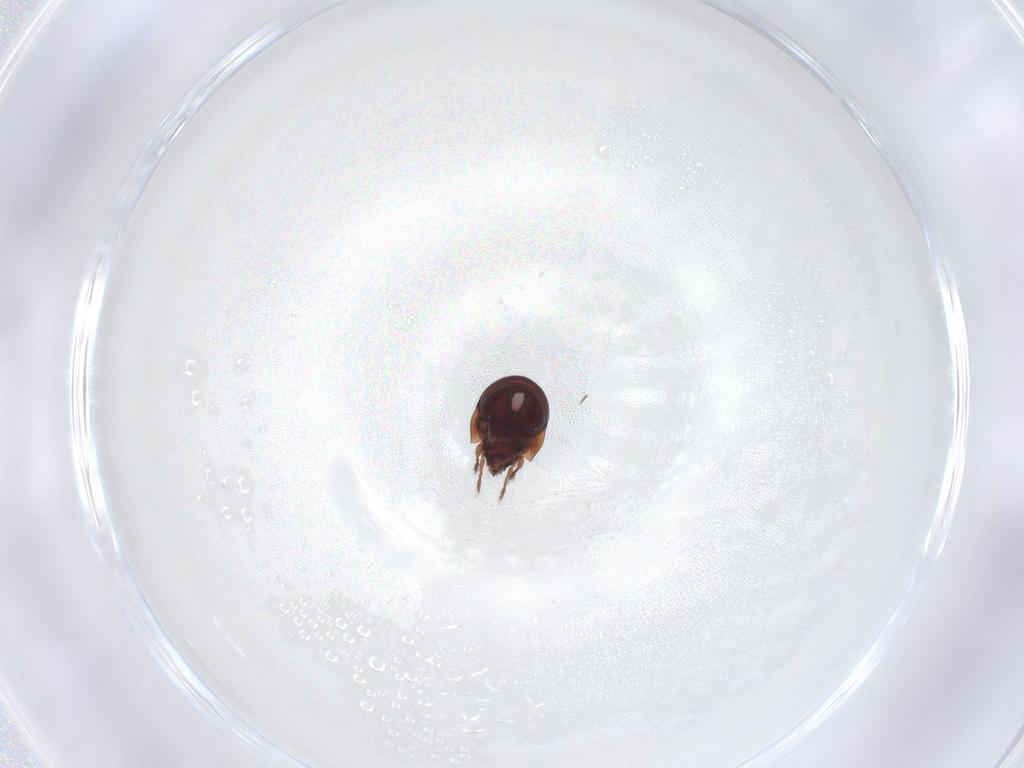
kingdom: Animalia
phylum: Arthropoda
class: Arachnida
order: Sarcoptiformes
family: Humerobatidae
